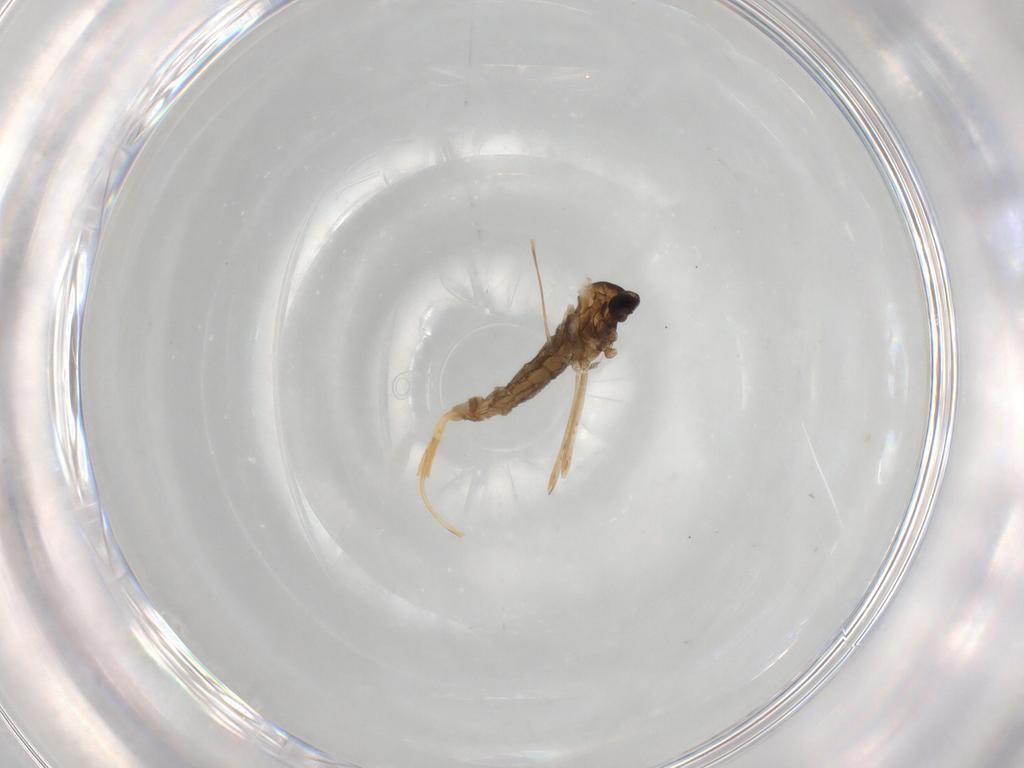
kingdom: Animalia
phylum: Arthropoda
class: Insecta
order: Diptera
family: Cecidomyiidae
